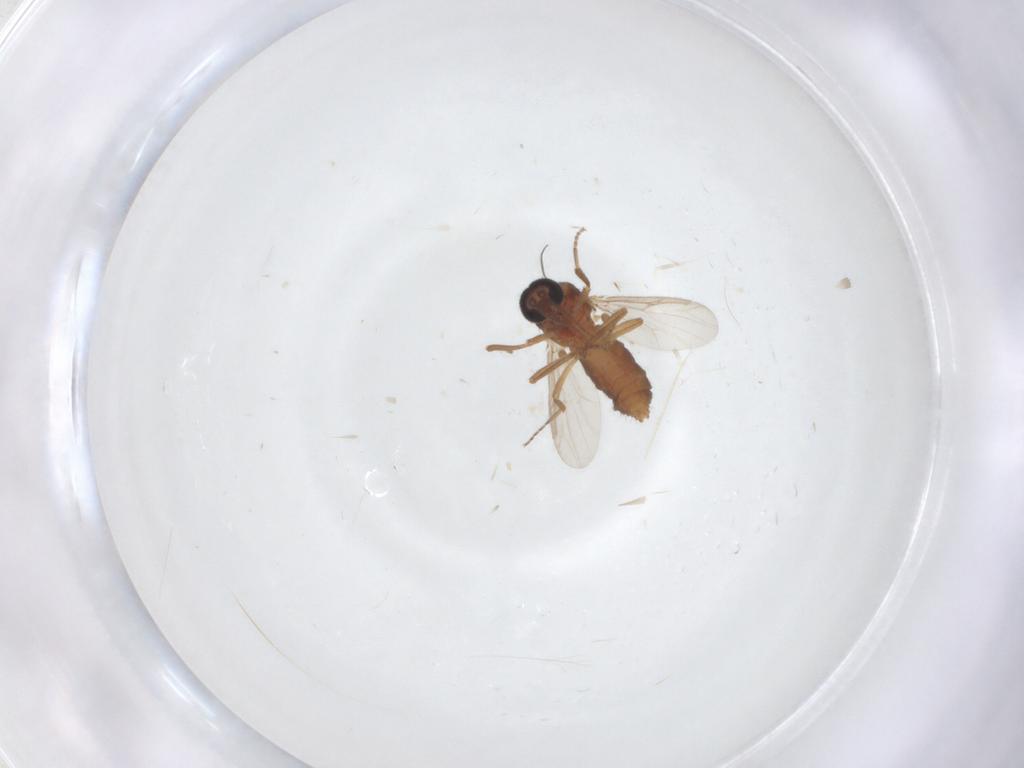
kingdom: Animalia
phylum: Arthropoda
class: Insecta
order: Diptera
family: Cecidomyiidae
